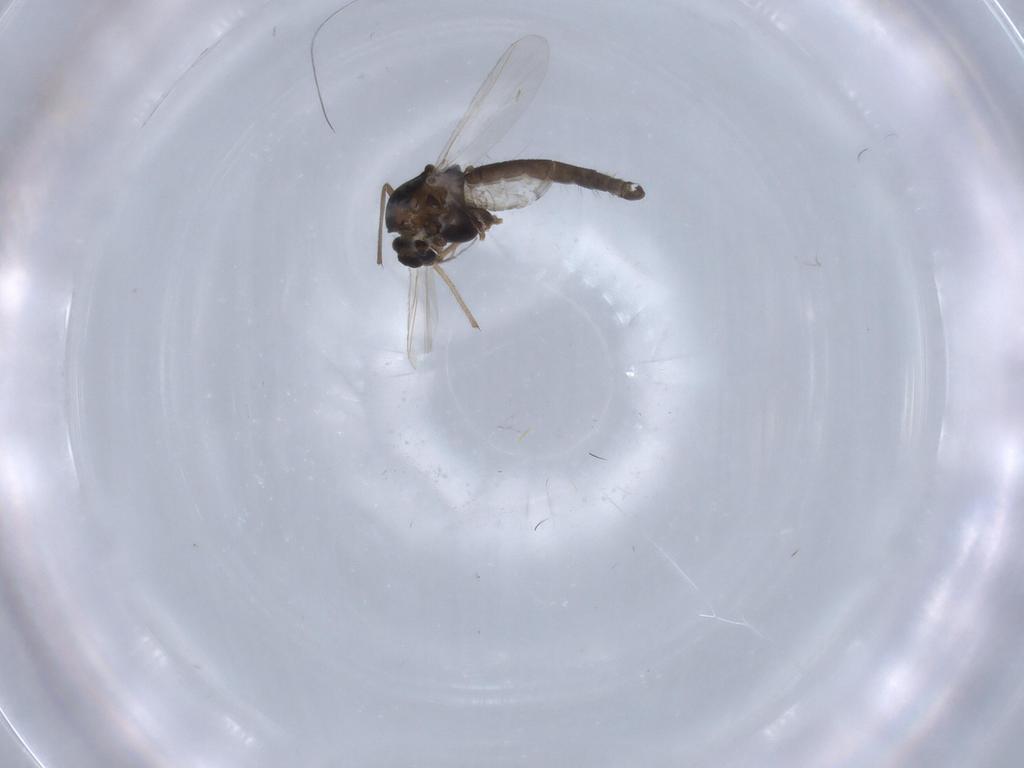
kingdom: Animalia
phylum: Arthropoda
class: Insecta
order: Diptera
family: Chironomidae
